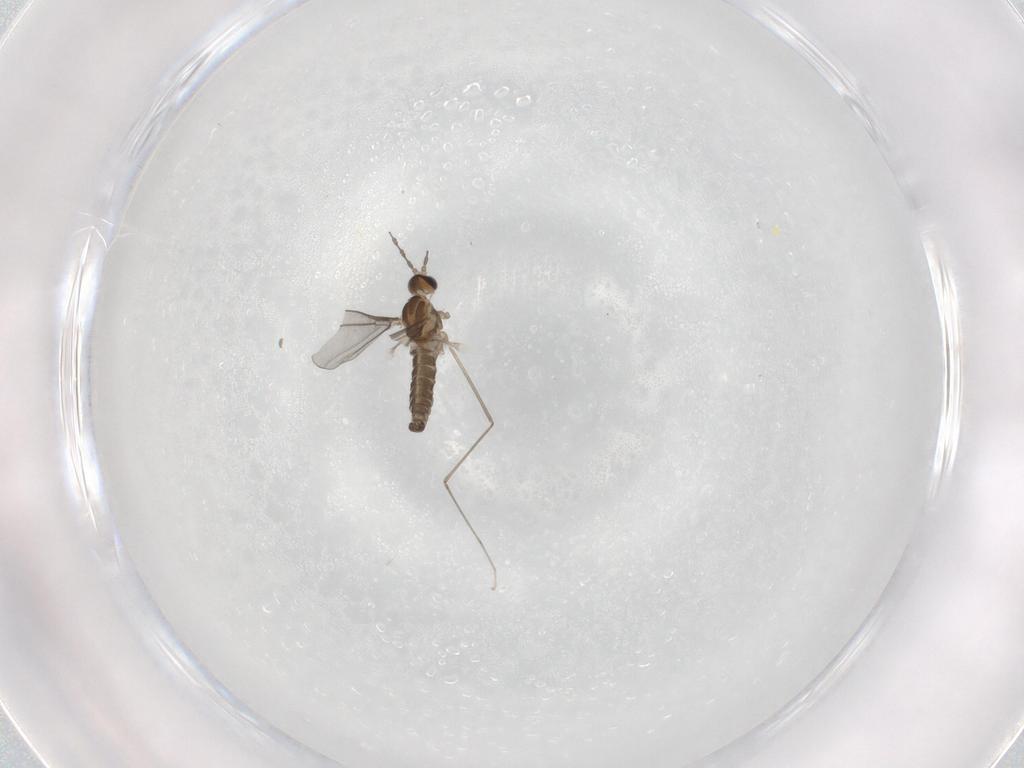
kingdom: Animalia
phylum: Arthropoda
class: Insecta
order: Diptera
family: Cecidomyiidae
